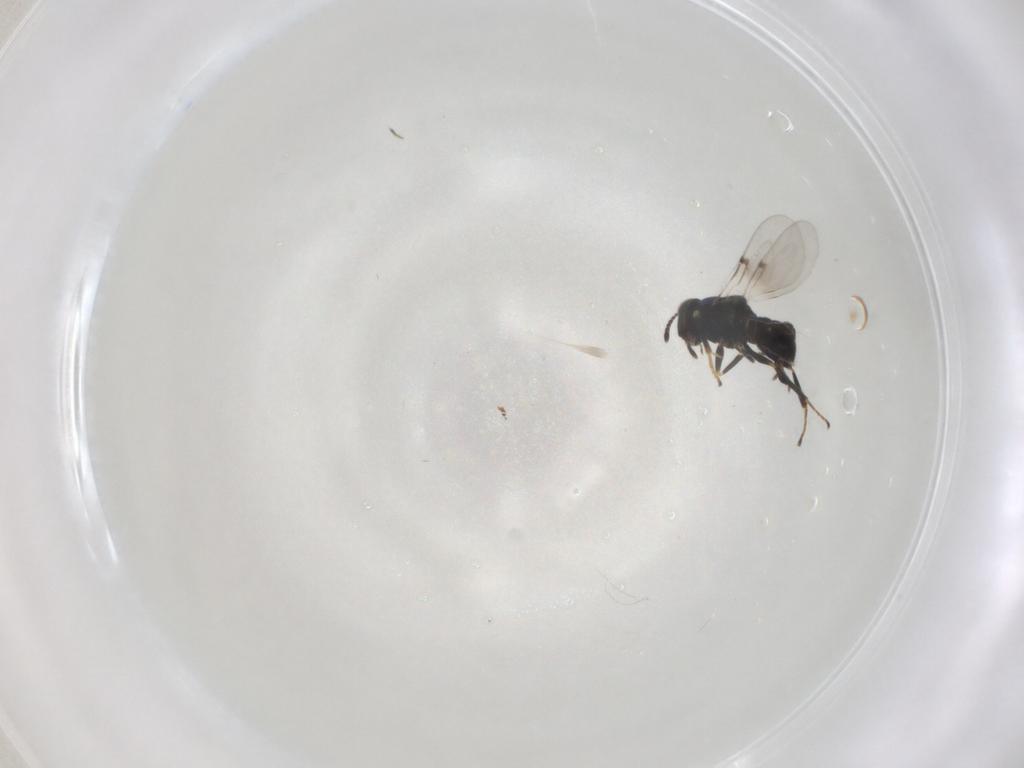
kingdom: Animalia
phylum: Arthropoda
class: Insecta
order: Hymenoptera
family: Encyrtidae
